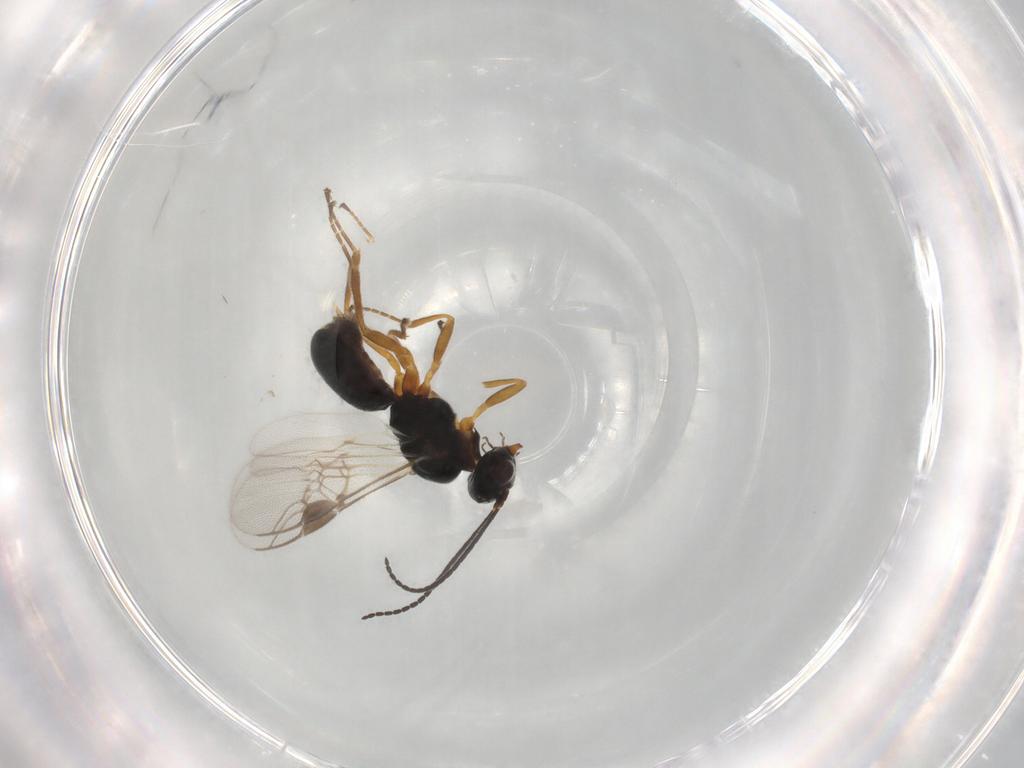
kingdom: Animalia
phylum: Arthropoda
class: Insecta
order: Hymenoptera
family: Braconidae
